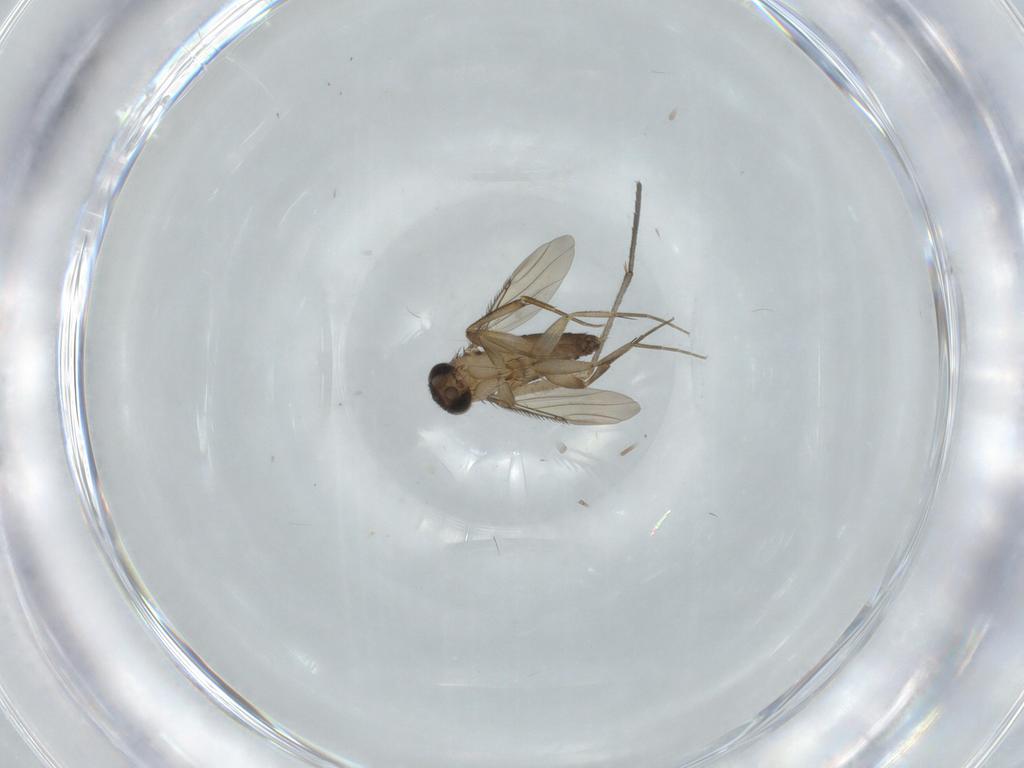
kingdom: Animalia
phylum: Arthropoda
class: Insecta
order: Diptera
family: Phoridae
